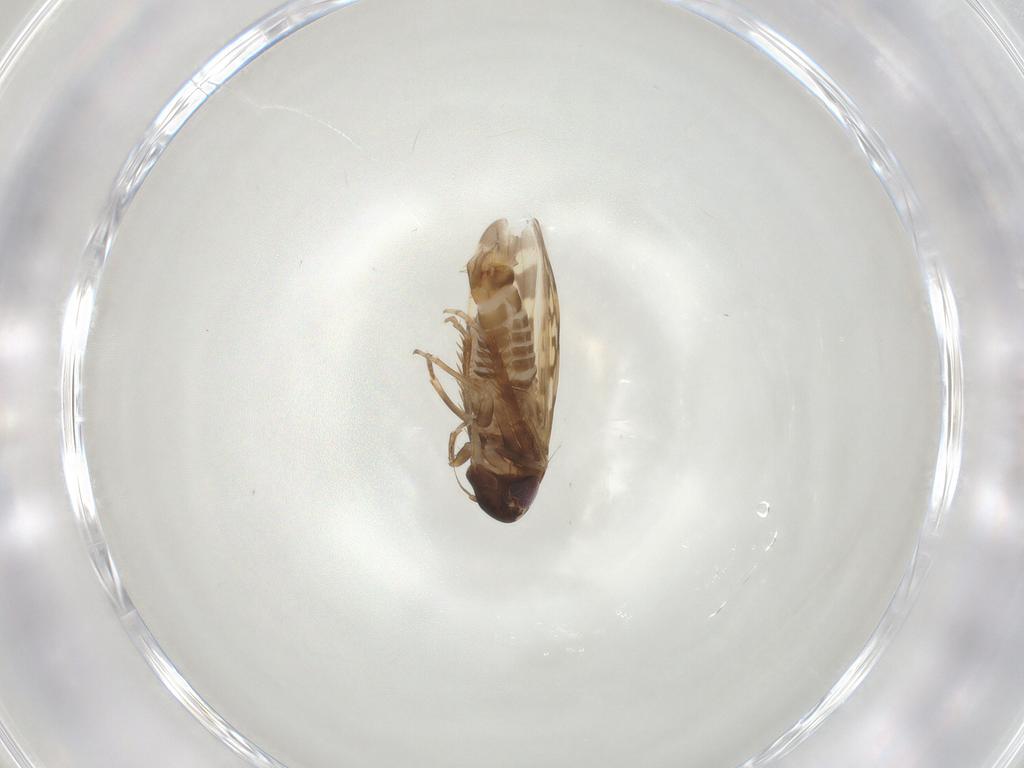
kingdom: Animalia
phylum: Arthropoda
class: Insecta
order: Hemiptera
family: Cicadellidae
